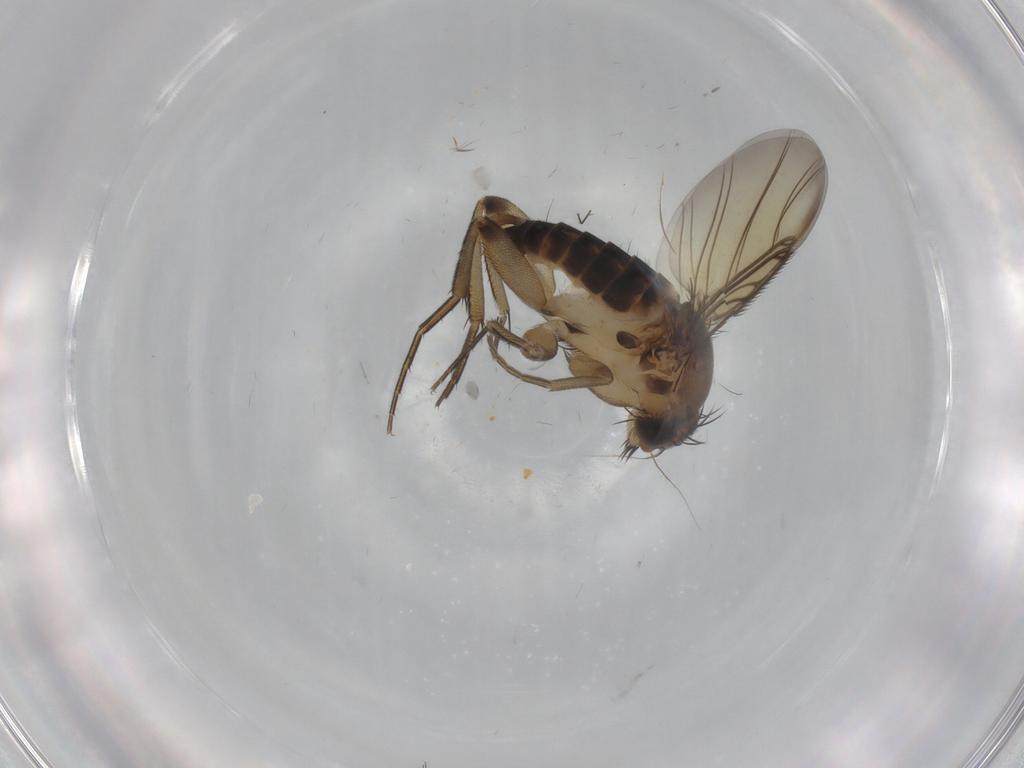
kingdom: Animalia
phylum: Arthropoda
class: Insecta
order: Diptera
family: Phoridae
